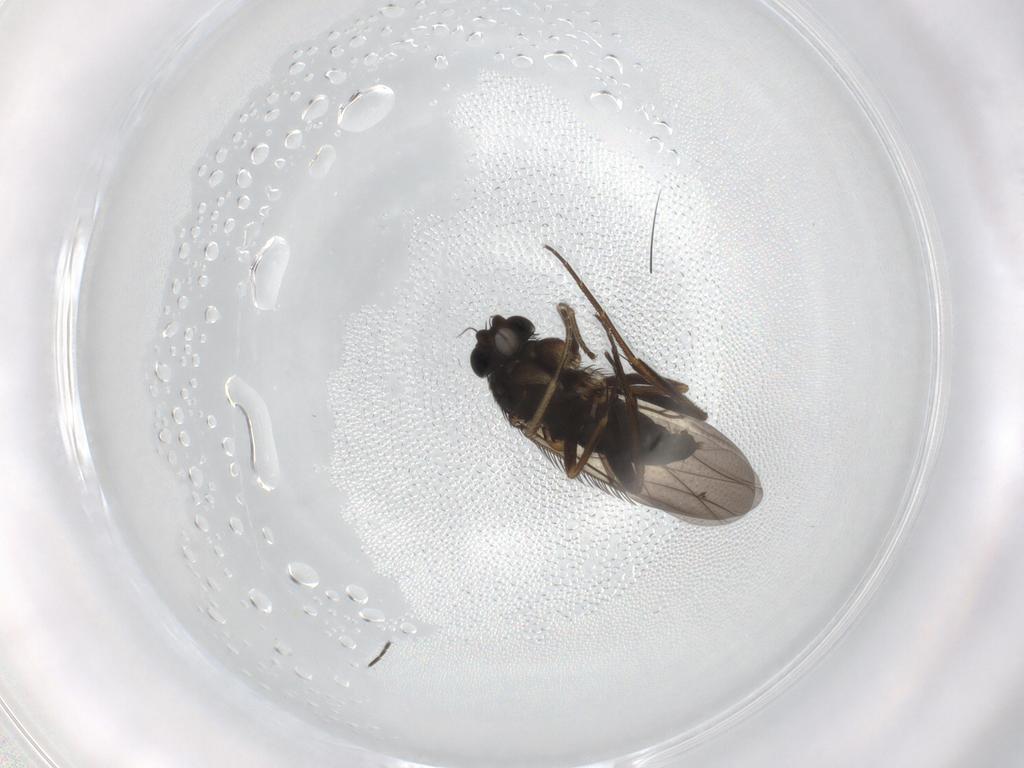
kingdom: Animalia
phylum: Arthropoda
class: Insecta
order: Diptera
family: Phoridae
